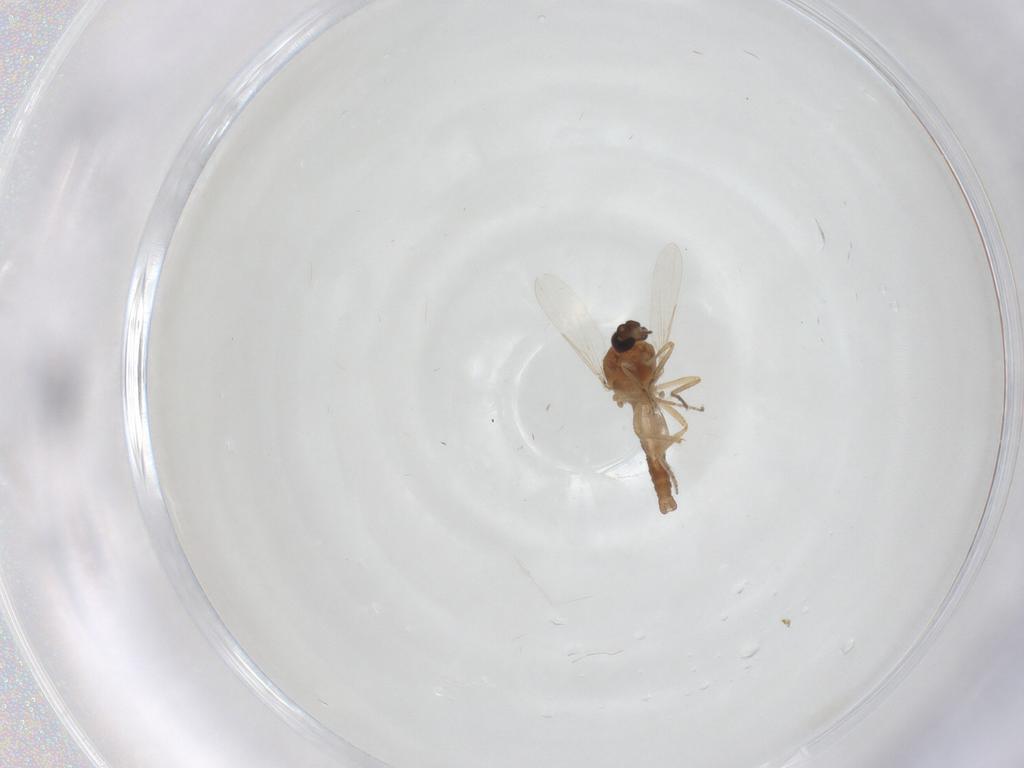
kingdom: Animalia
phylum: Arthropoda
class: Insecta
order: Diptera
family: Ceratopogonidae
